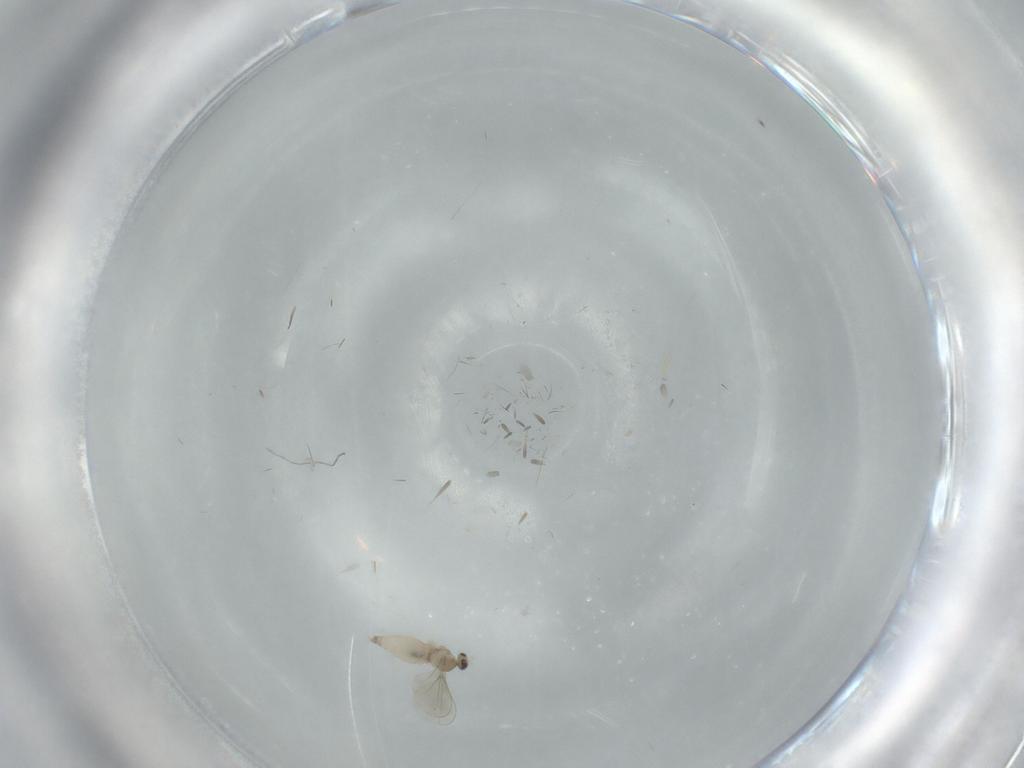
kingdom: Animalia
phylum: Arthropoda
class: Insecta
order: Diptera
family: Cecidomyiidae
